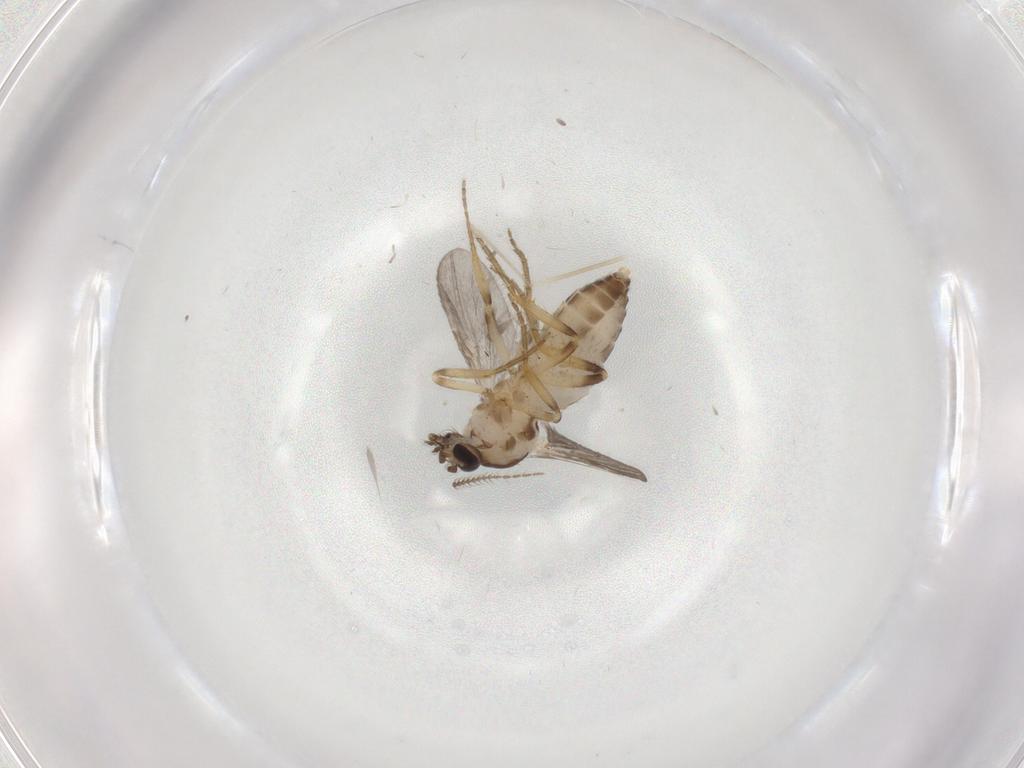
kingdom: Animalia
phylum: Arthropoda
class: Insecta
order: Diptera
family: Ceratopogonidae
